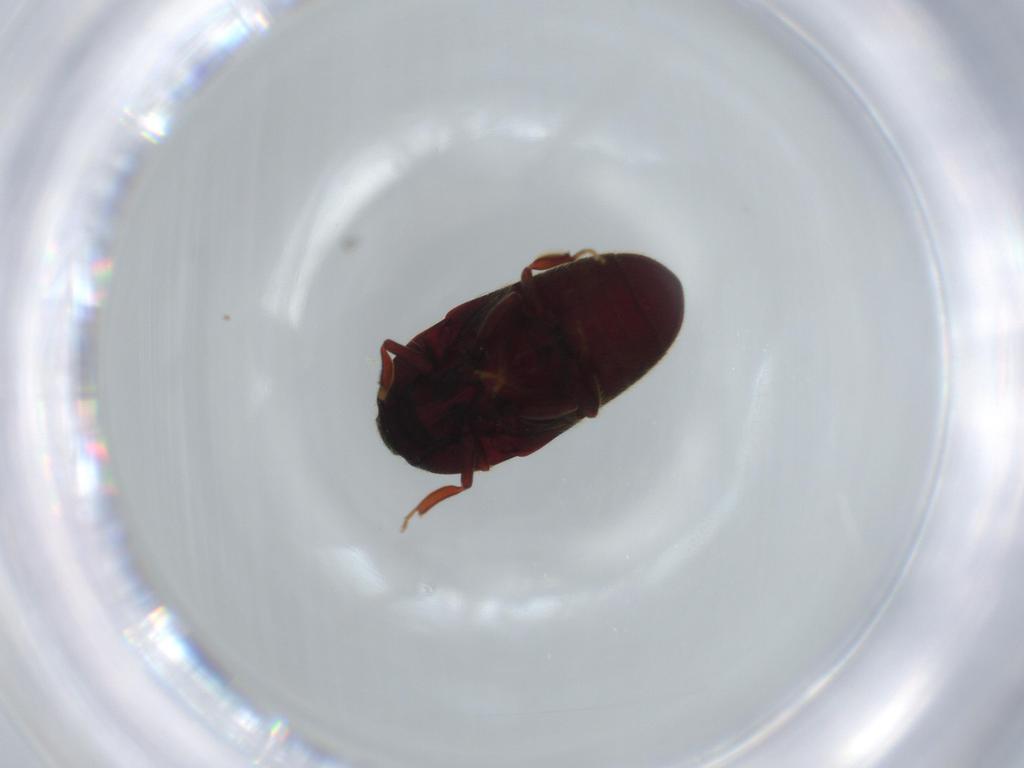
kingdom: Animalia
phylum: Arthropoda
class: Insecta
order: Coleoptera
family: Throscidae
